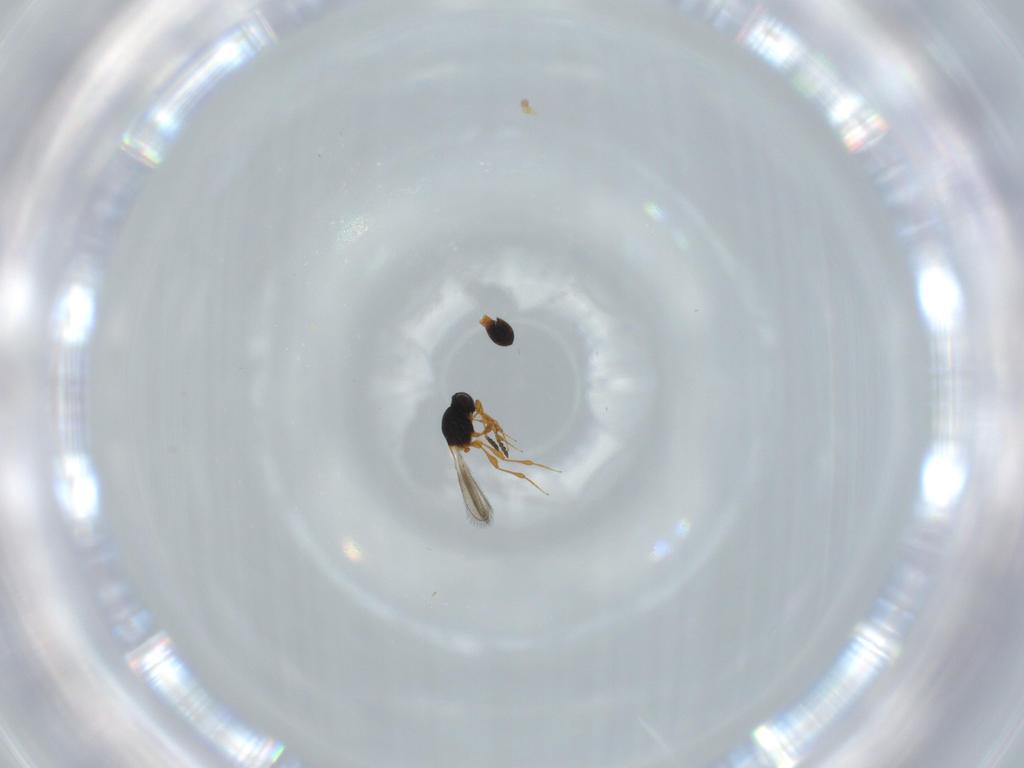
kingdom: Animalia
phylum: Arthropoda
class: Insecta
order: Hymenoptera
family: Platygastridae
